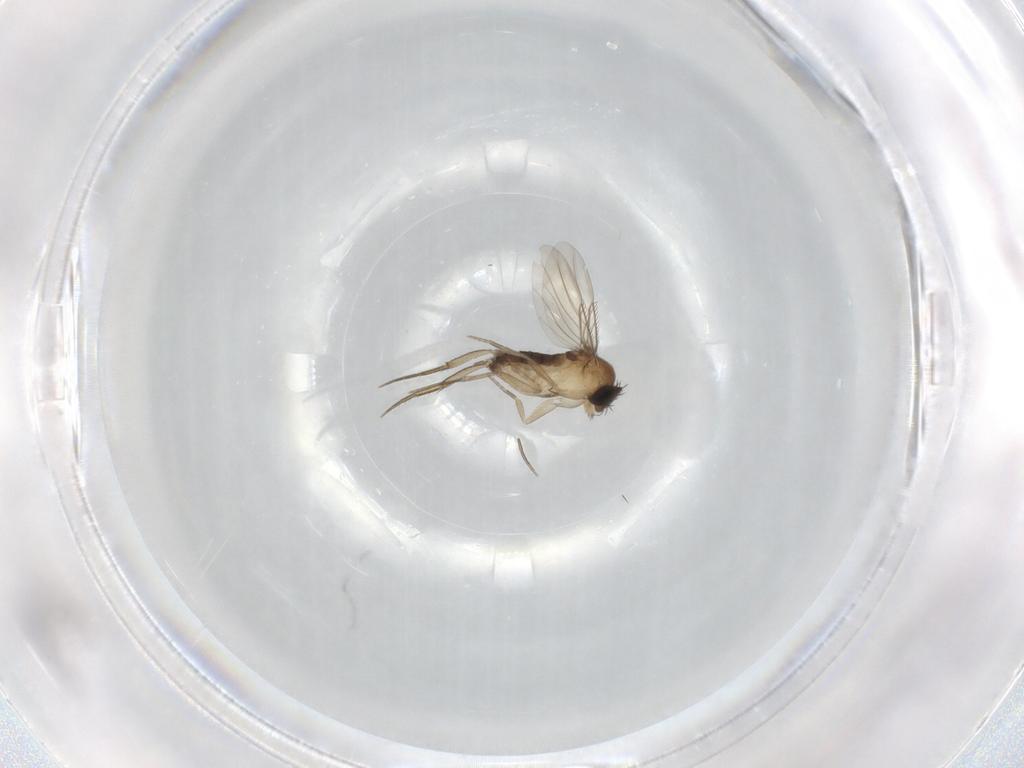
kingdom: Animalia
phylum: Arthropoda
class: Insecta
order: Diptera
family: Phoridae
